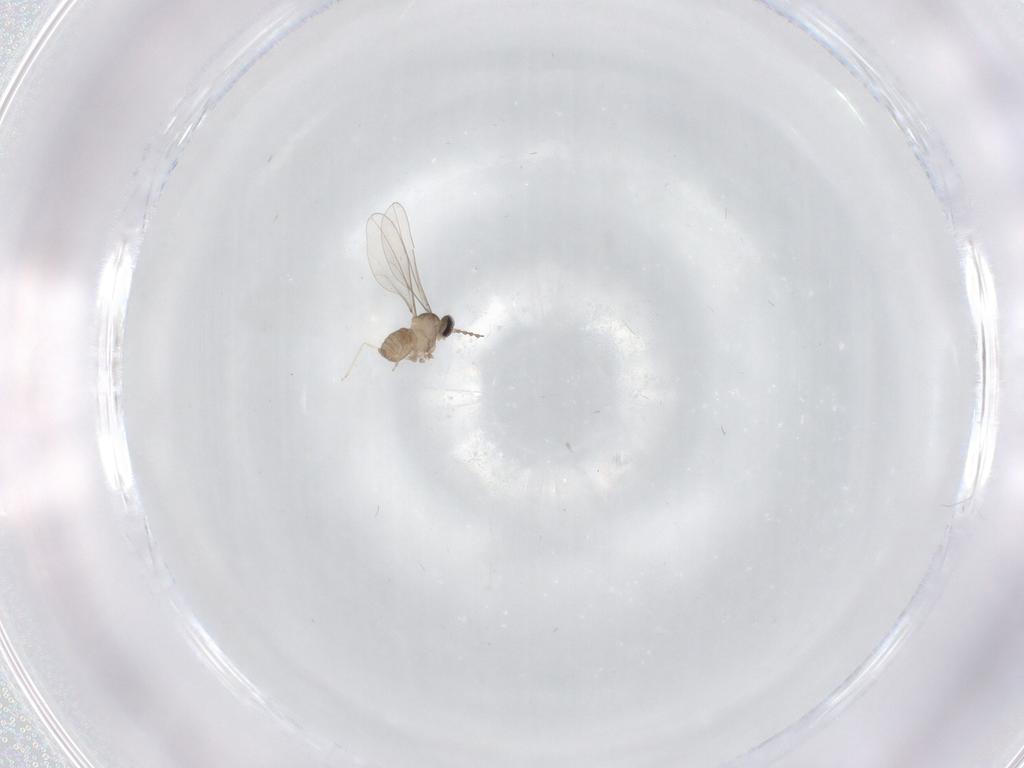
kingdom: Animalia
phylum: Arthropoda
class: Insecta
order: Diptera
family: Cecidomyiidae
